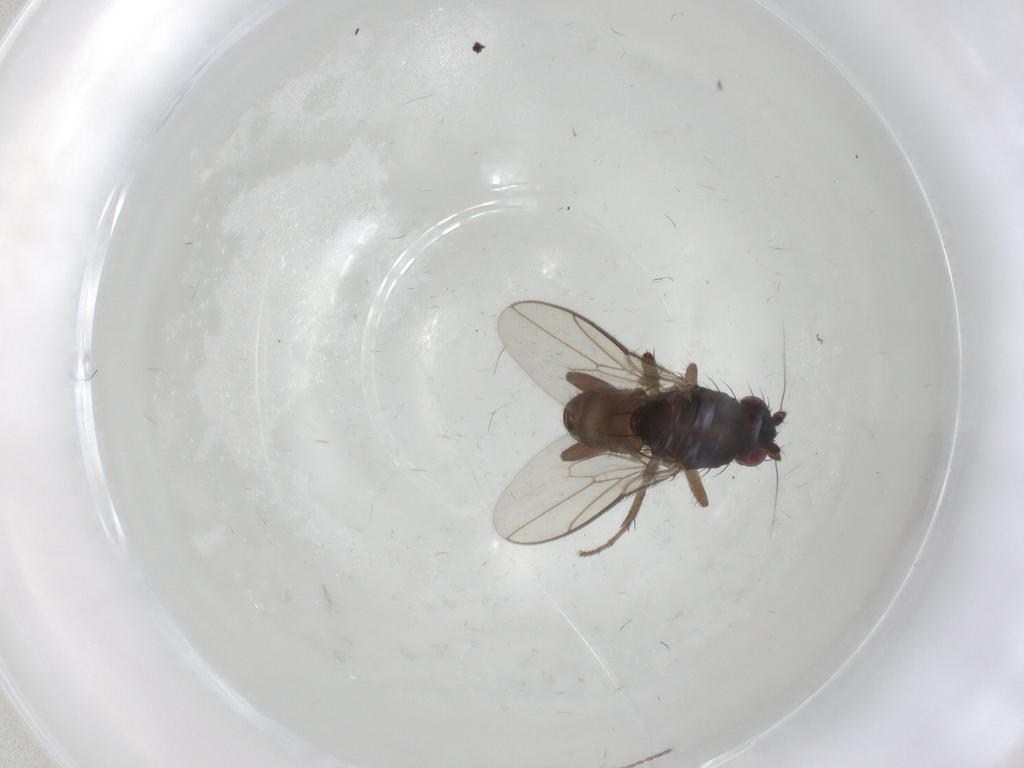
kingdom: Animalia
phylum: Arthropoda
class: Insecta
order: Diptera
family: Sphaeroceridae
